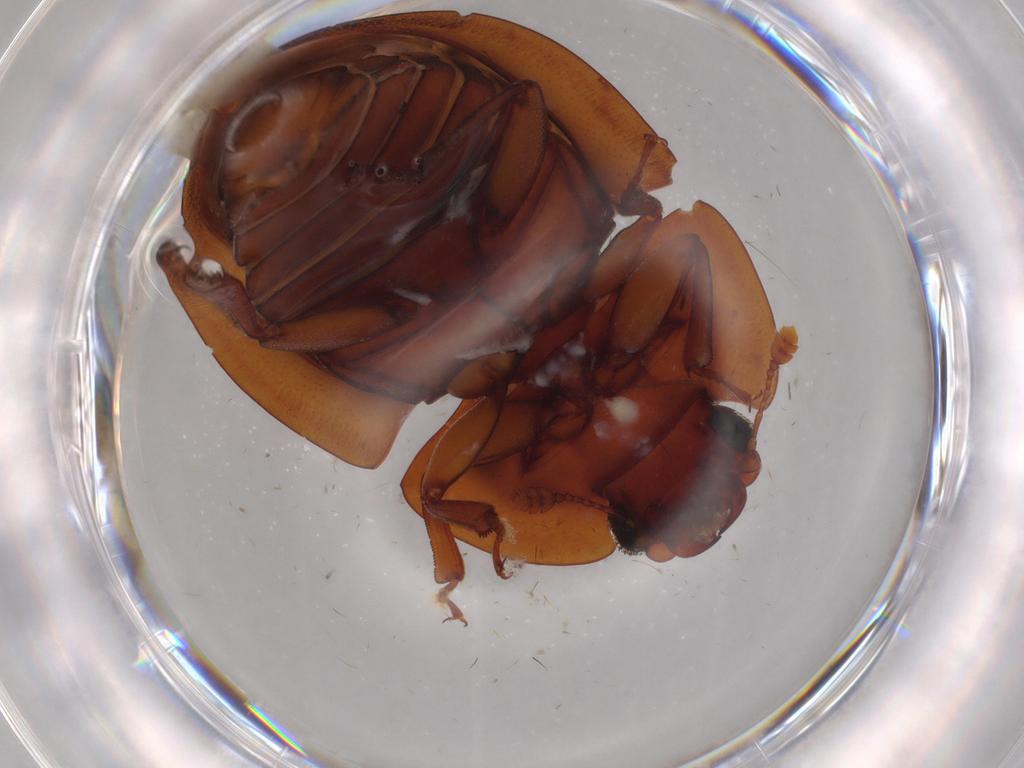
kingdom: Animalia
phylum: Arthropoda
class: Insecta
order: Coleoptera
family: Nitidulidae
